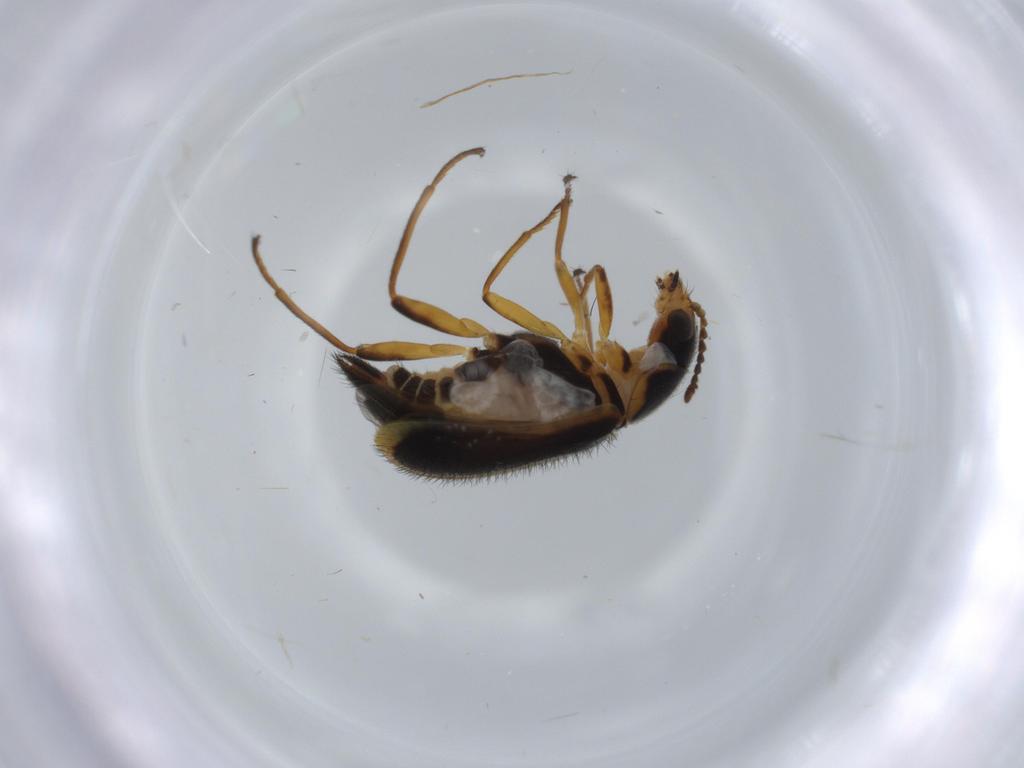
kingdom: Animalia
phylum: Arthropoda
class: Insecta
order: Coleoptera
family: Melyridae
